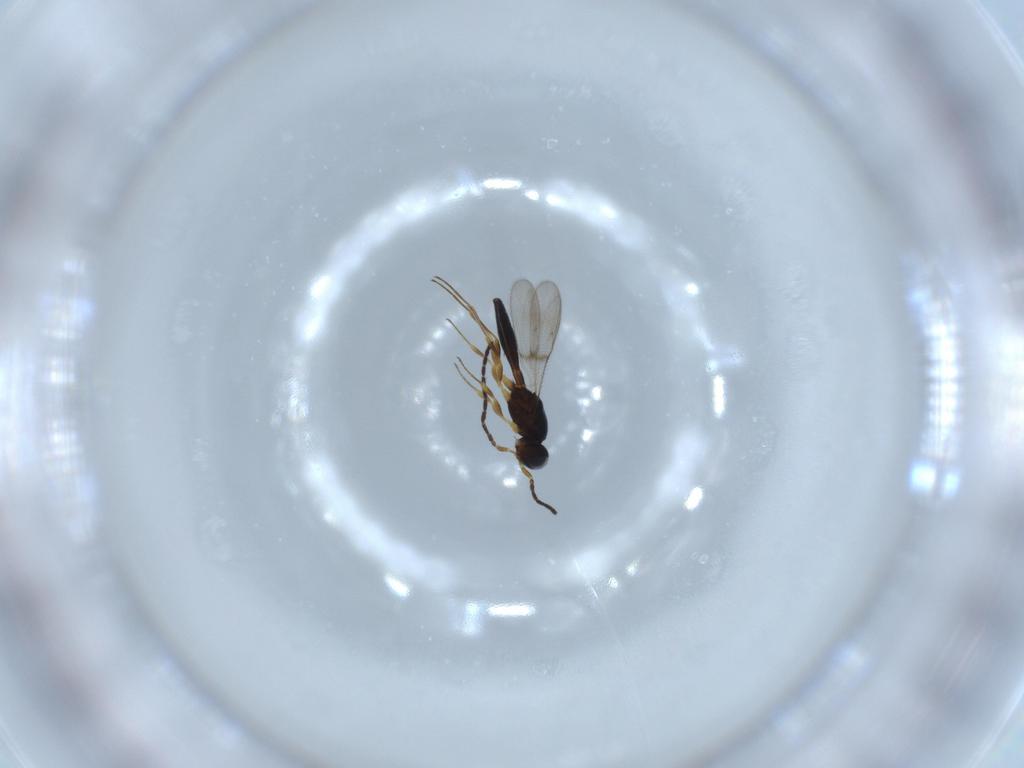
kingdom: Animalia
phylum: Arthropoda
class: Insecta
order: Hymenoptera
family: Scelionidae
